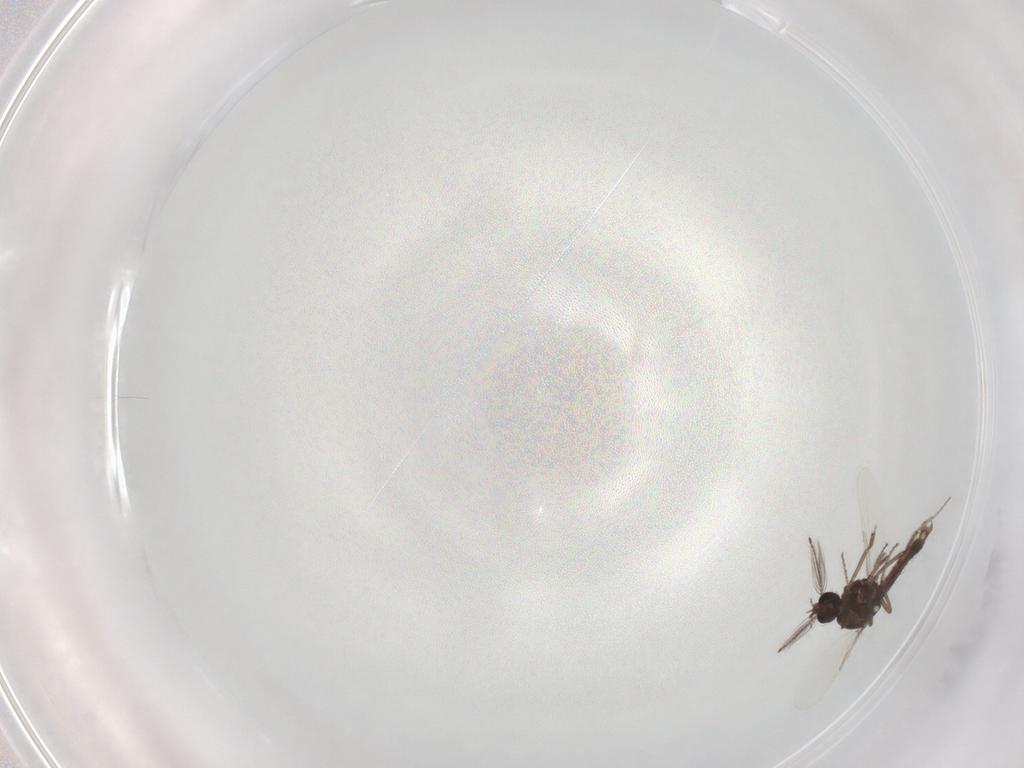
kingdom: Animalia
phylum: Arthropoda
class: Insecta
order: Diptera
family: Ceratopogonidae
